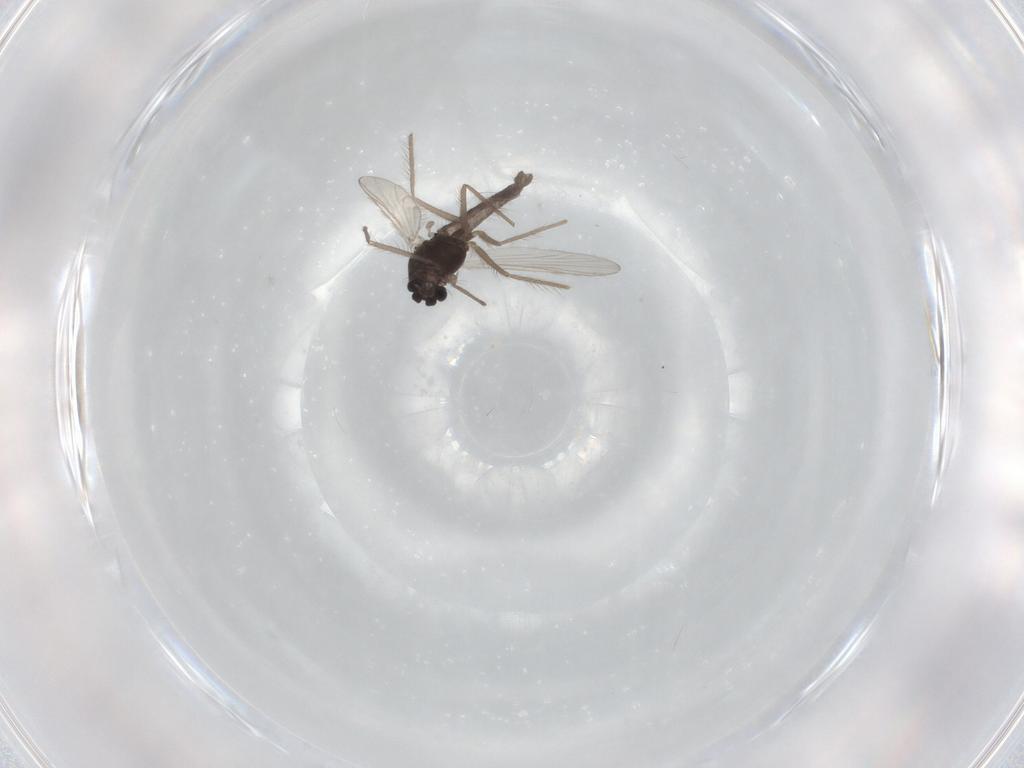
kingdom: Animalia
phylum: Arthropoda
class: Insecta
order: Diptera
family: Chironomidae
